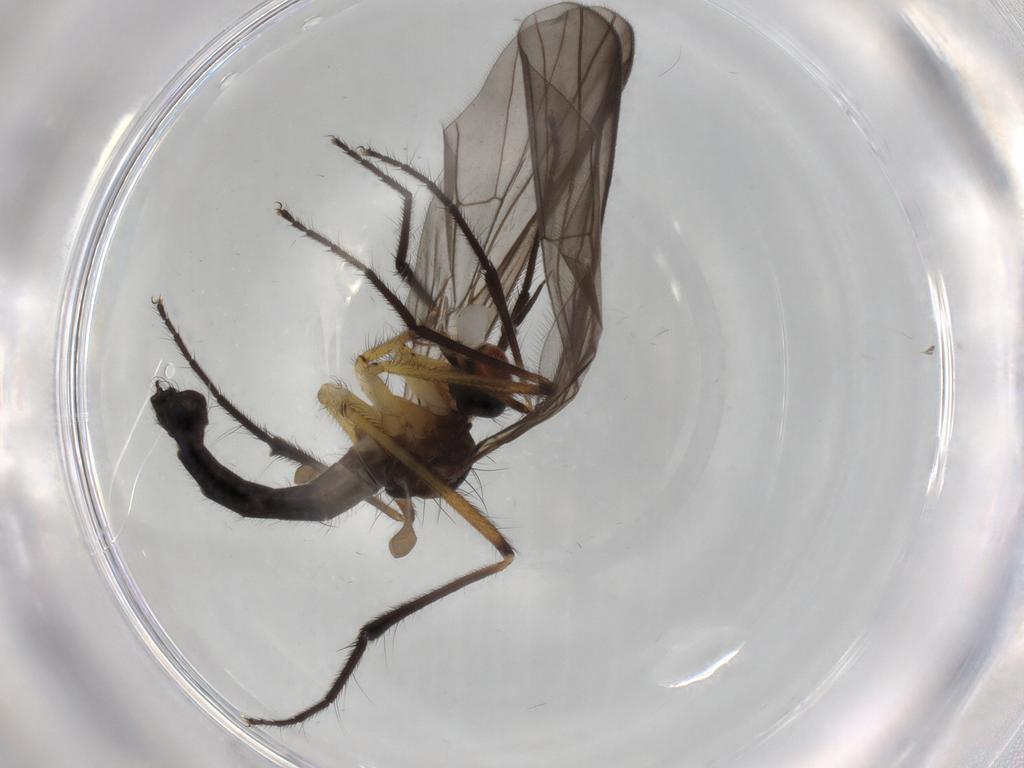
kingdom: Animalia
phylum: Arthropoda
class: Insecta
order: Diptera
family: Empididae
